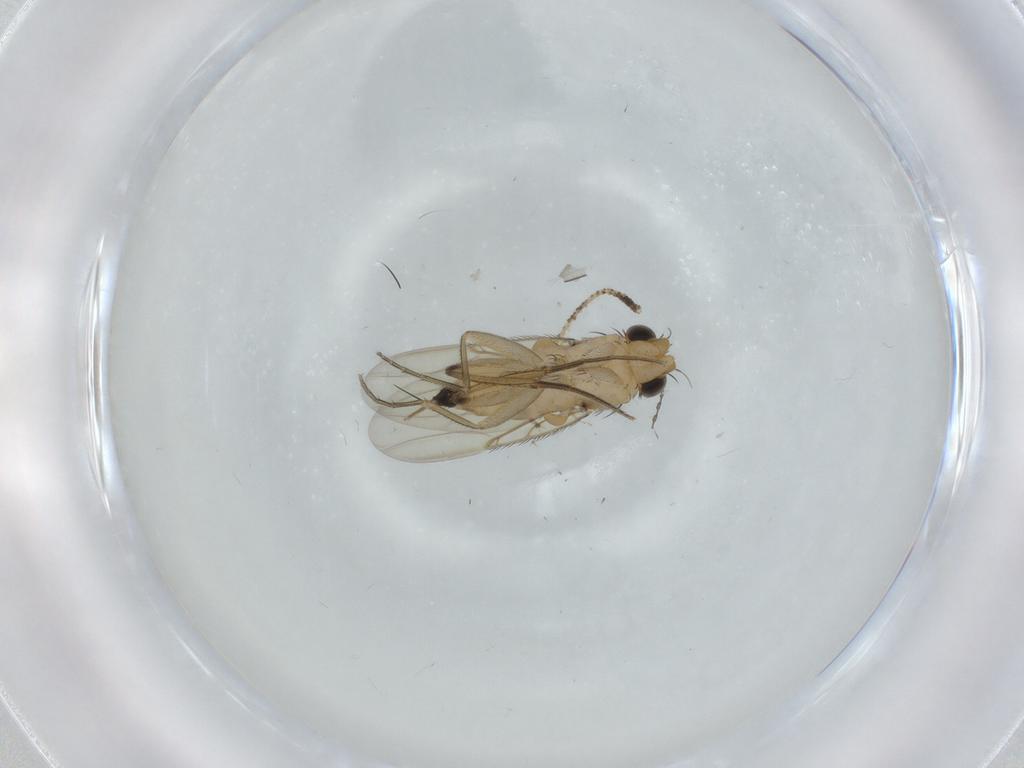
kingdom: Animalia
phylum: Arthropoda
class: Insecta
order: Diptera
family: Phoridae
